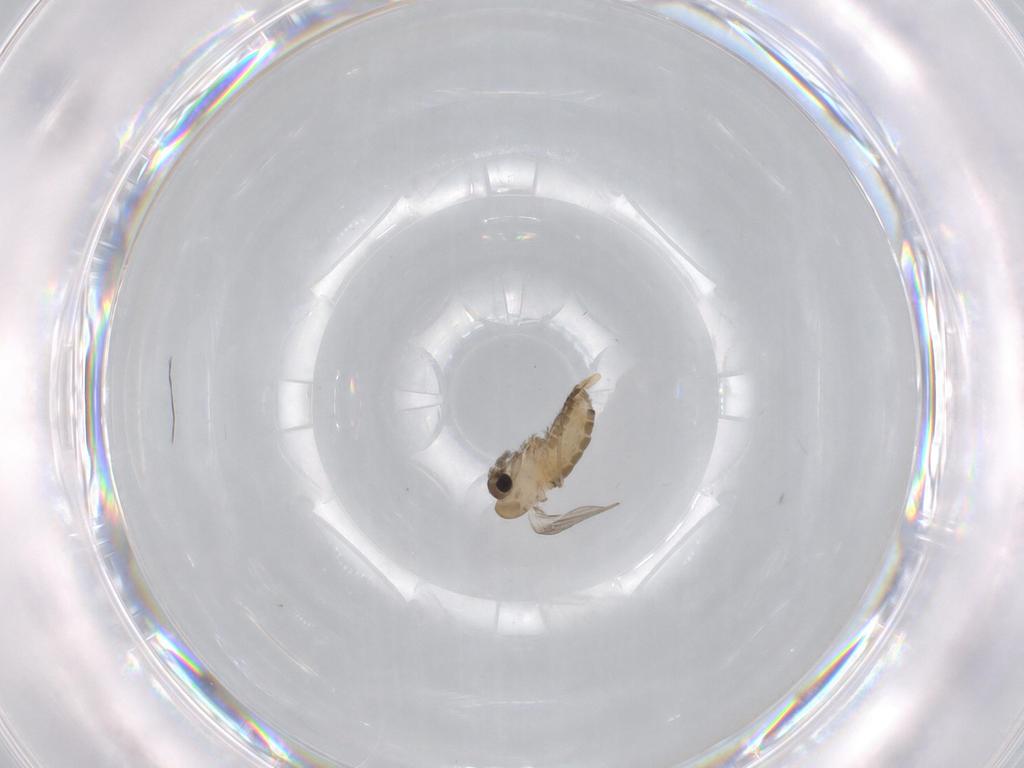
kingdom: Animalia
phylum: Arthropoda
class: Insecta
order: Diptera
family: Psychodidae
